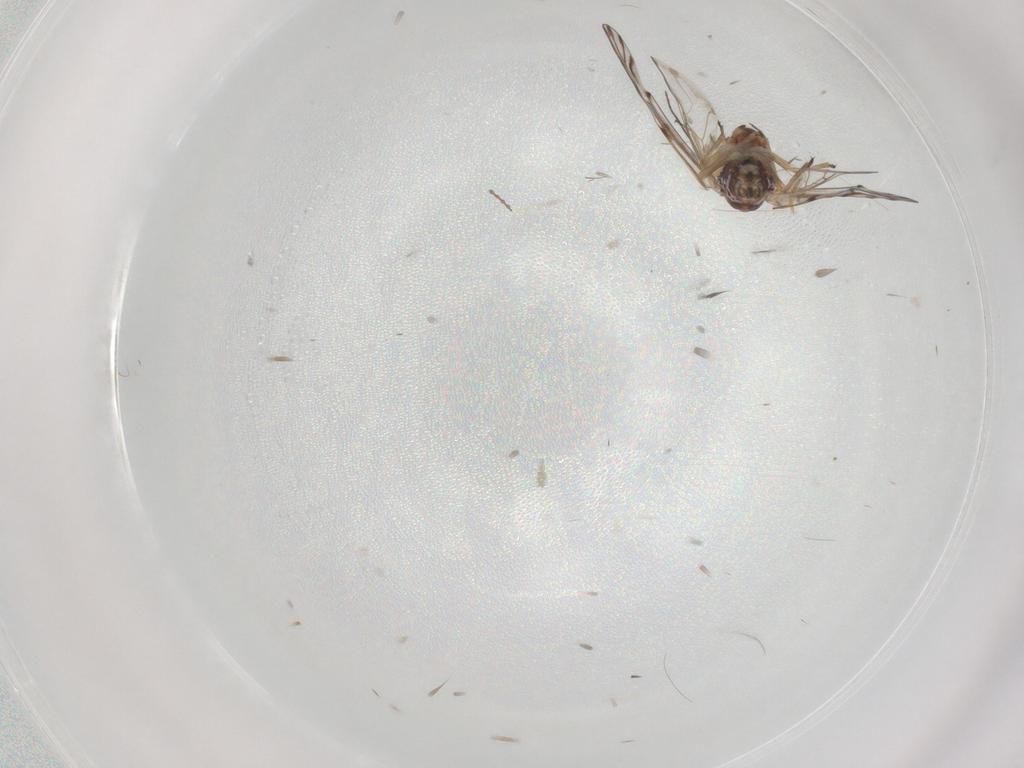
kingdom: Animalia
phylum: Arthropoda
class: Insecta
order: Psocodea
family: Lachesillidae
